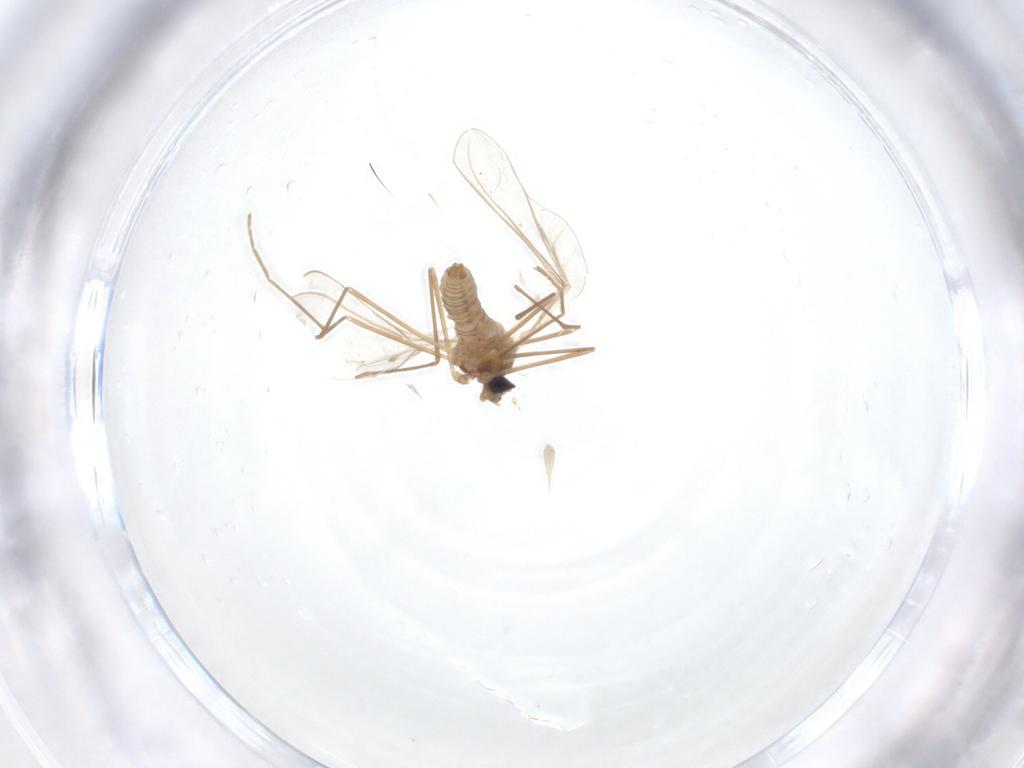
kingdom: Animalia
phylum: Arthropoda
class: Insecta
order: Diptera
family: Cecidomyiidae
